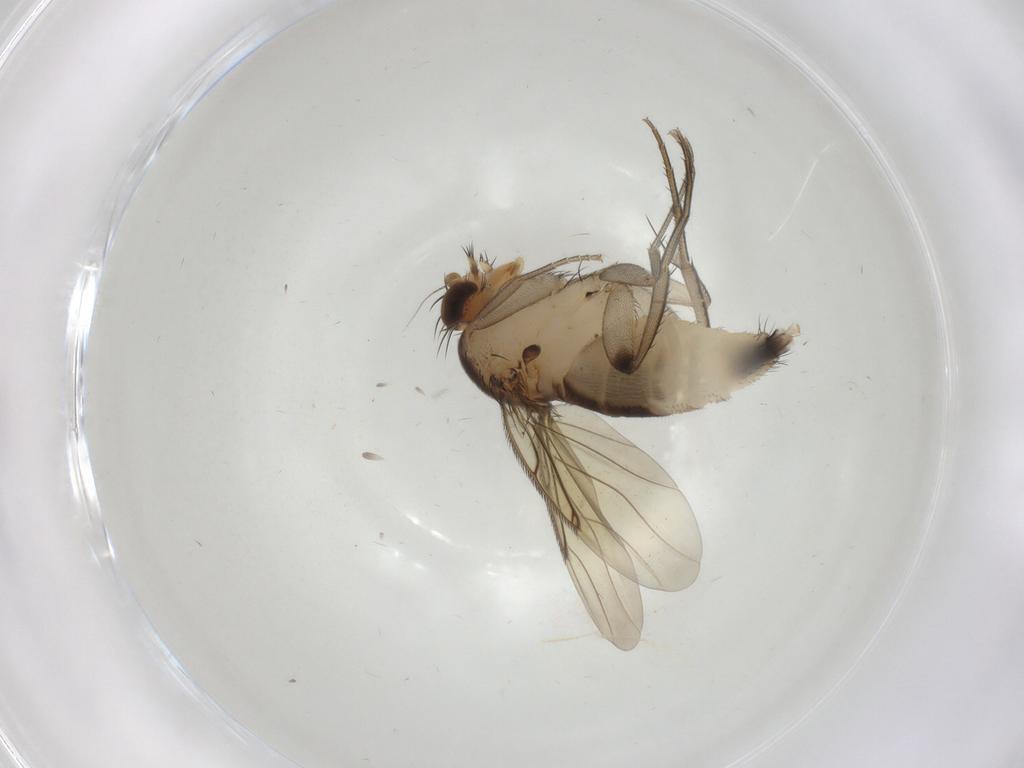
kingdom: Animalia
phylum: Arthropoda
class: Insecta
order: Diptera
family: Phoridae
